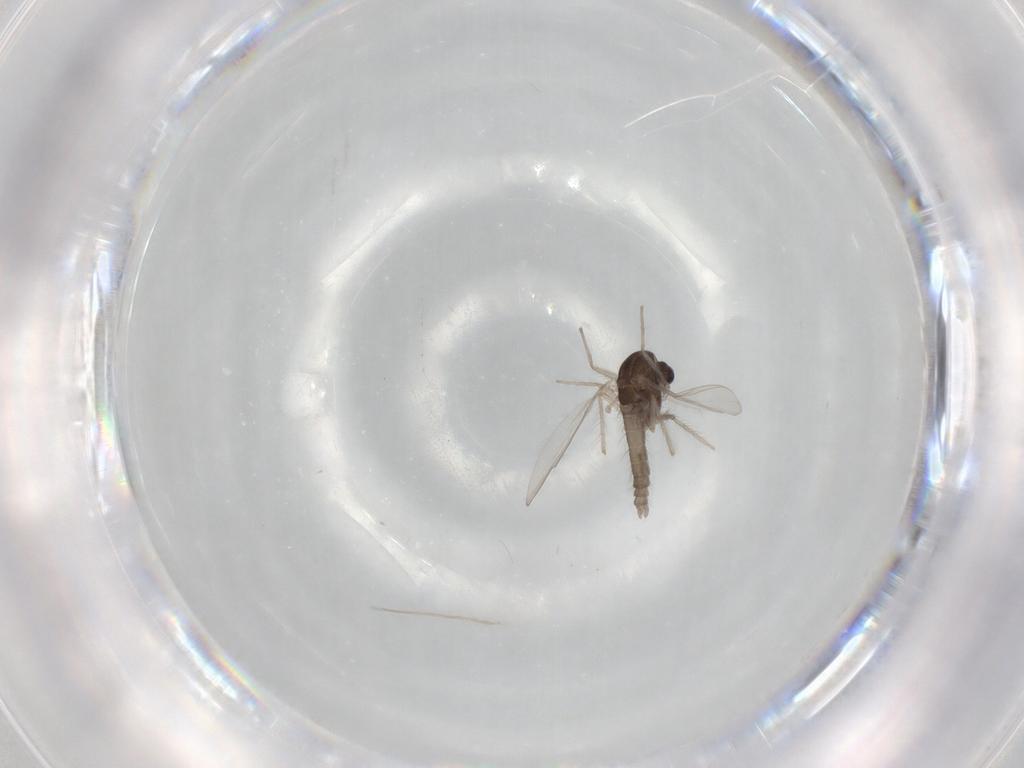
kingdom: Animalia
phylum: Arthropoda
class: Insecta
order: Diptera
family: Chironomidae
